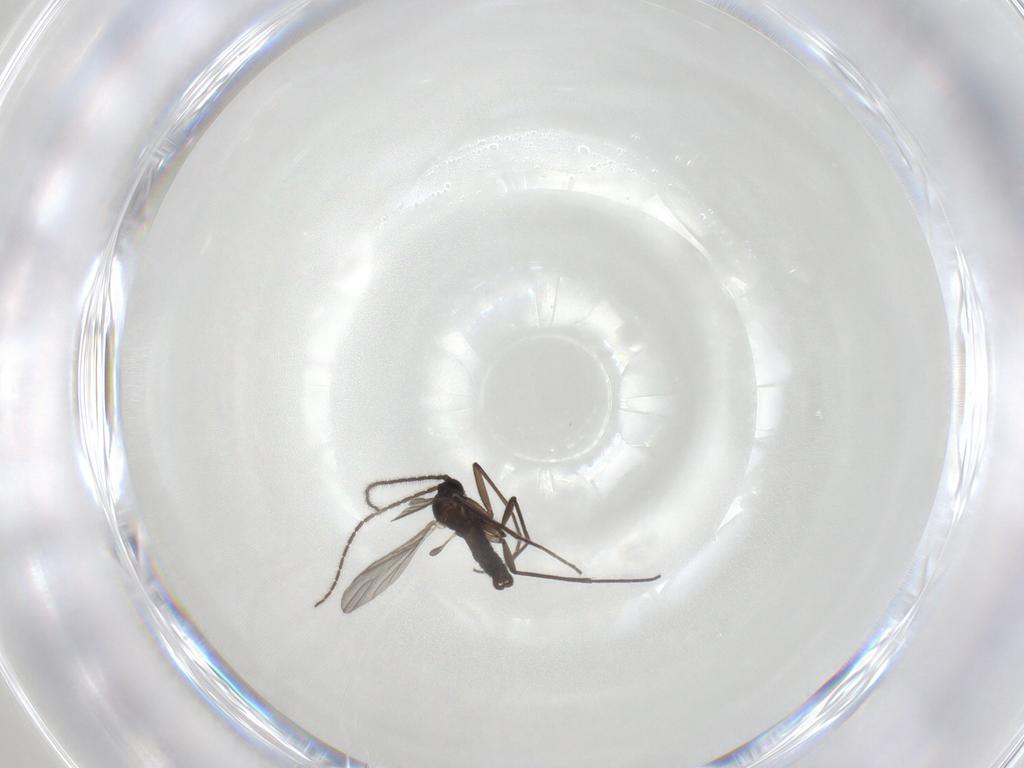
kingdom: Animalia
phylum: Arthropoda
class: Insecta
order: Diptera
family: Sciaridae
